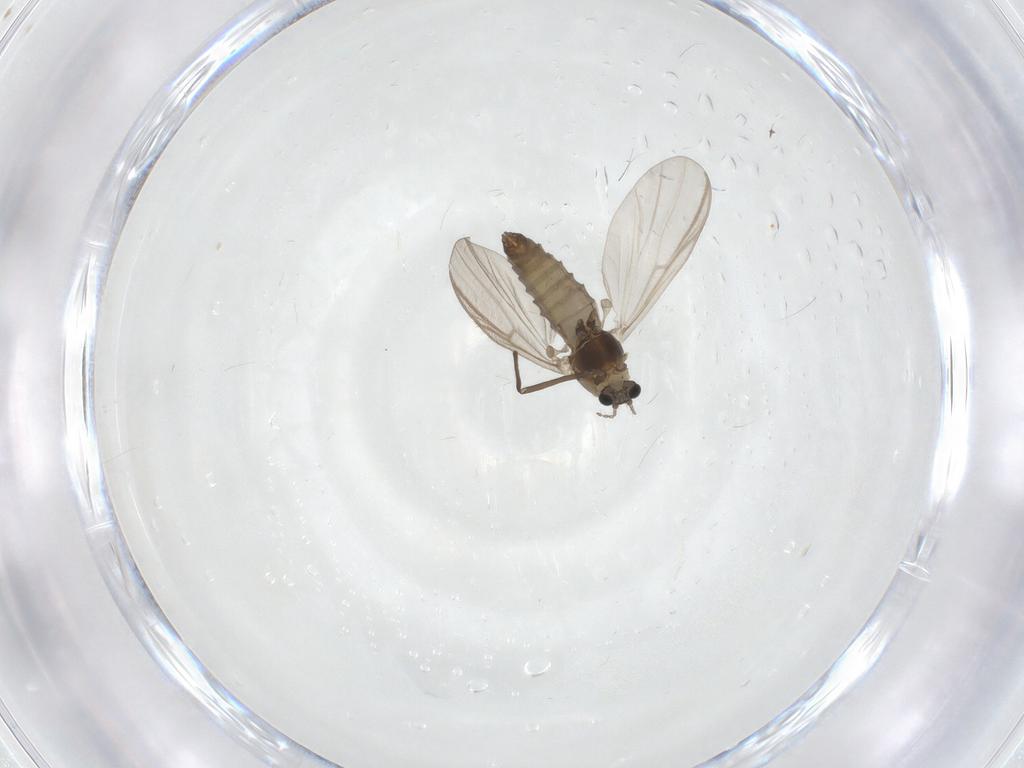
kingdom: Animalia
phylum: Arthropoda
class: Insecta
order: Diptera
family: Chironomidae
